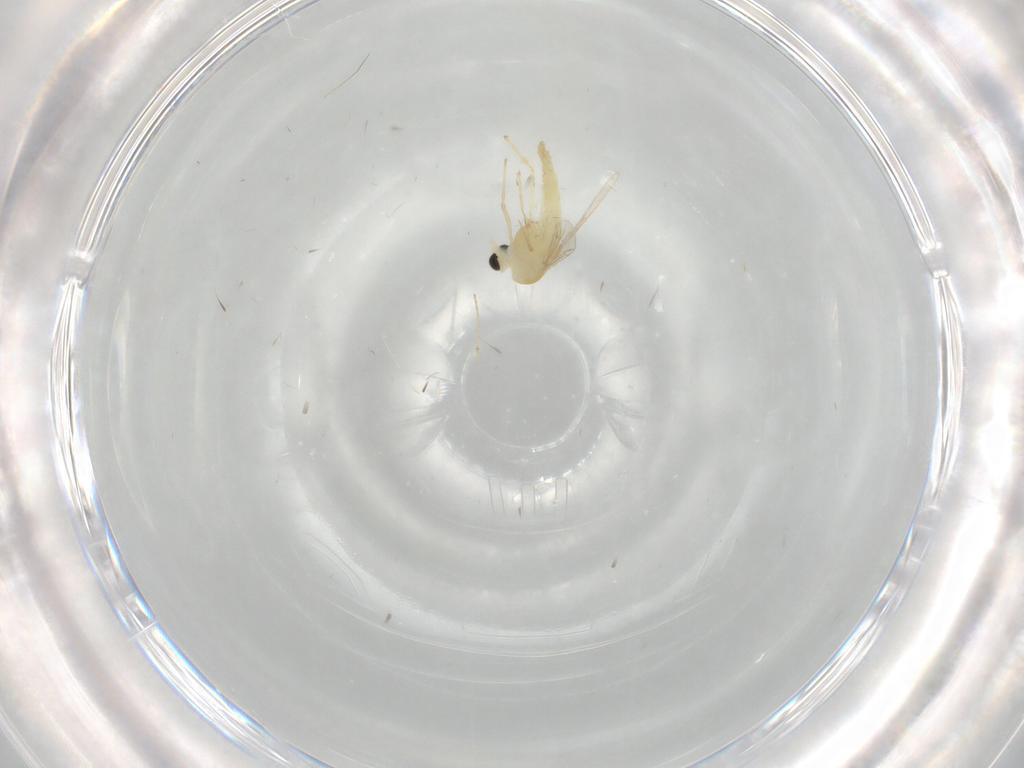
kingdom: Animalia
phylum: Arthropoda
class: Insecta
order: Diptera
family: Chironomidae
